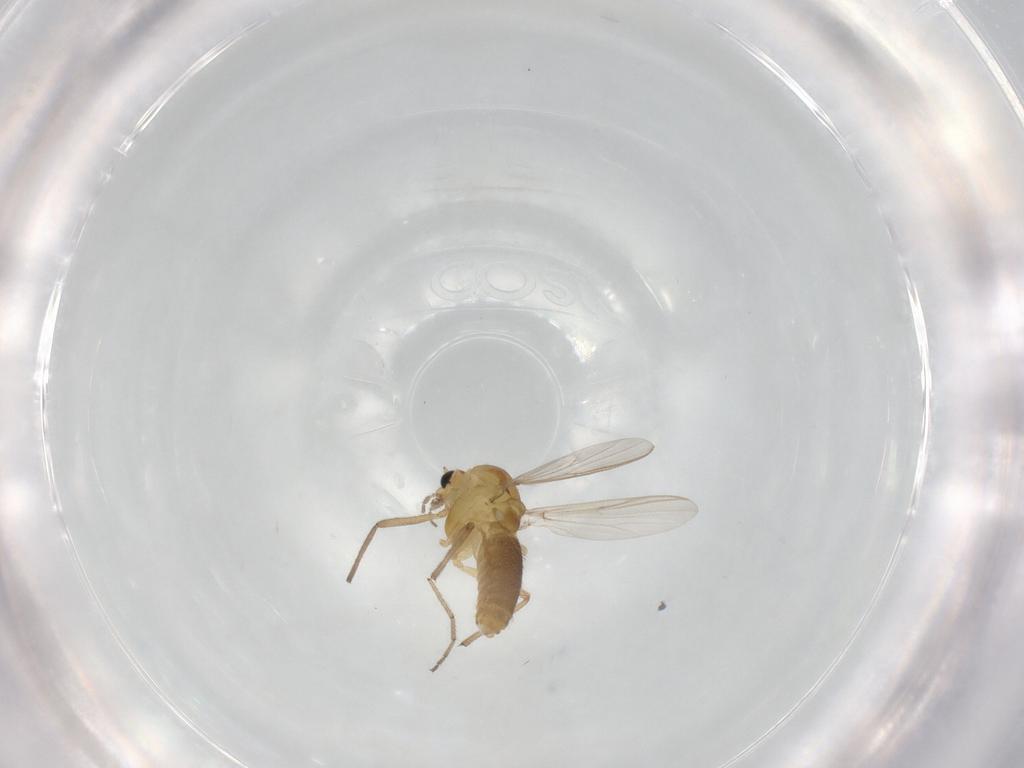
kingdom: Animalia
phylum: Arthropoda
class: Insecta
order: Diptera
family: Chironomidae
